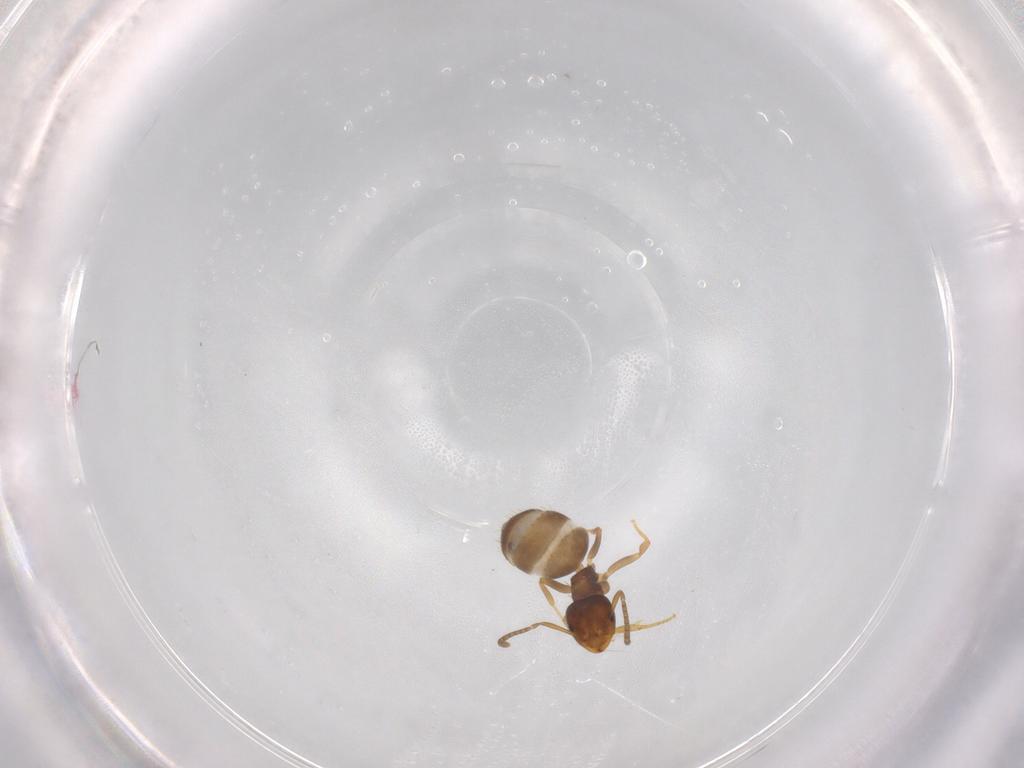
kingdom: Animalia
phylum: Arthropoda
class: Insecta
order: Hymenoptera
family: Formicidae
